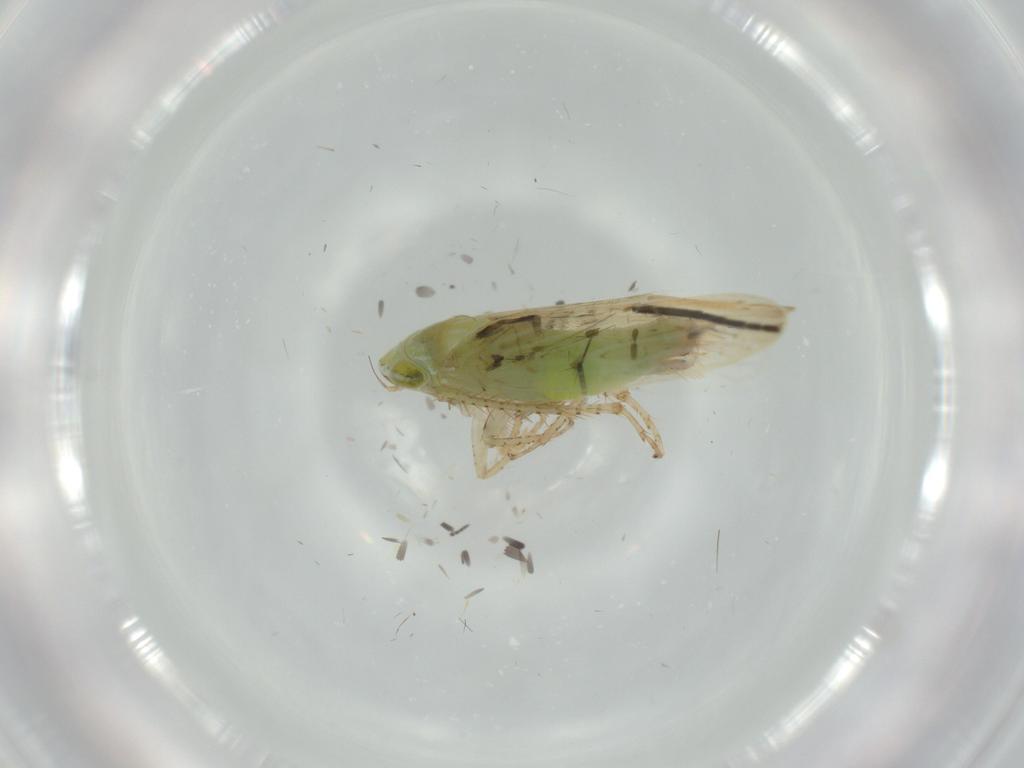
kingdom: Animalia
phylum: Arthropoda
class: Insecta
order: Hemiptera
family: Cicadellidae
